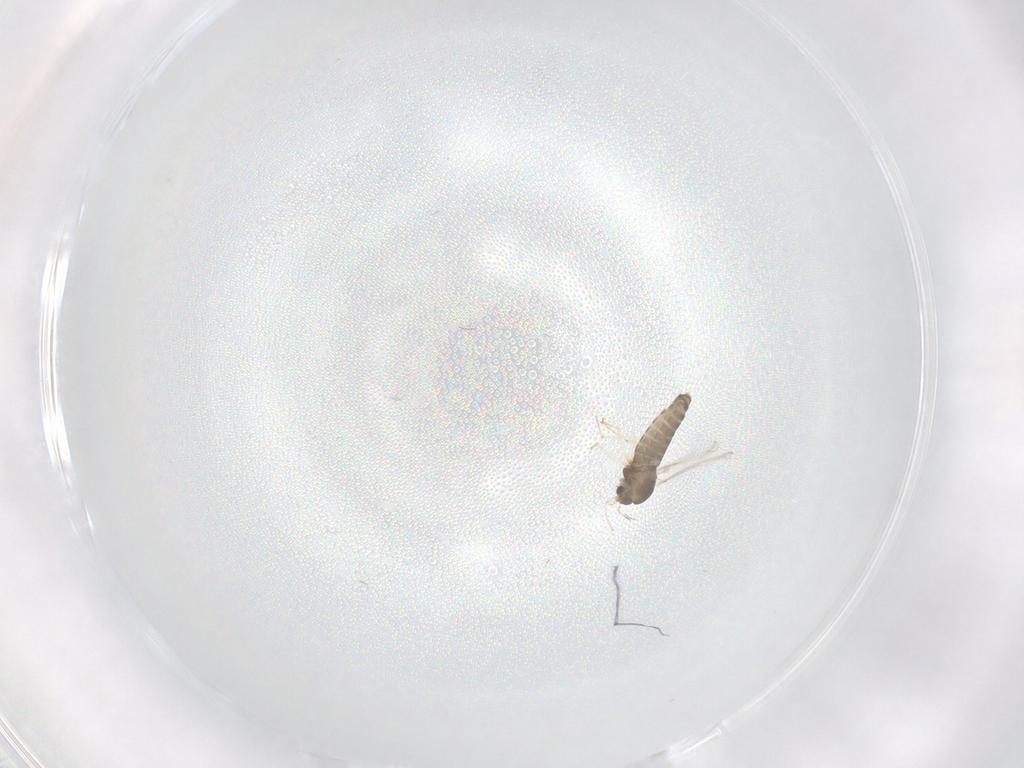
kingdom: Animalia
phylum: Arthropoda
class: Insecta
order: Diptera
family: Chironomidae
